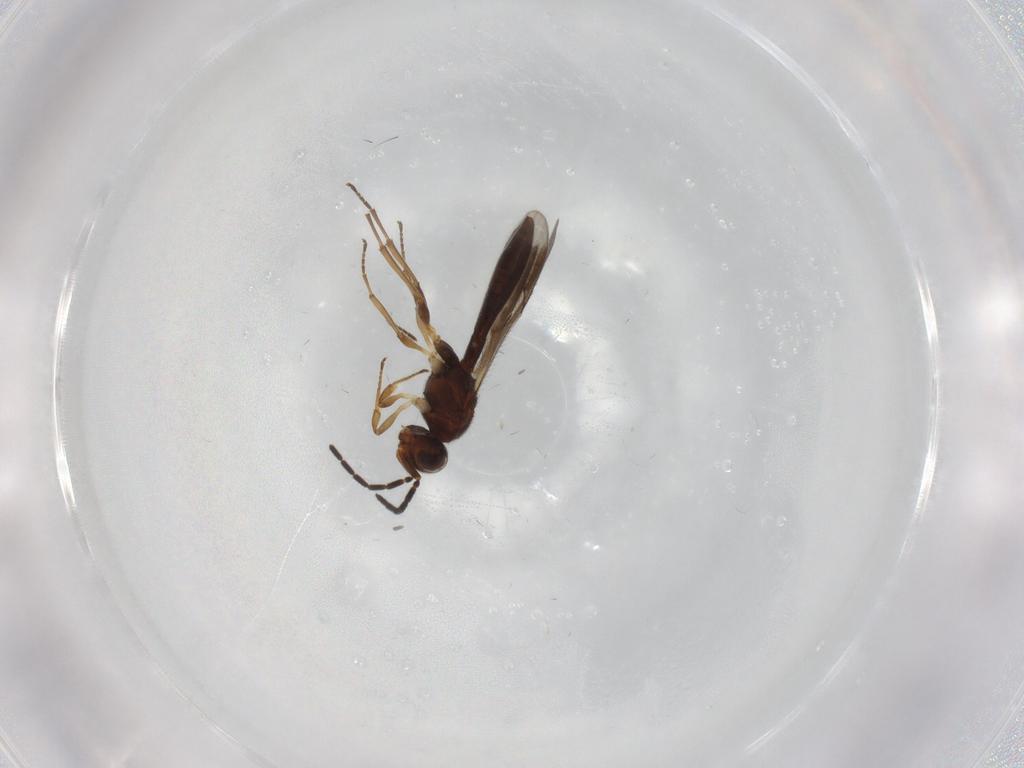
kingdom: Animalia
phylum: Arthropoda
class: Insecta
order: Hymenoptera
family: Scelionidae
